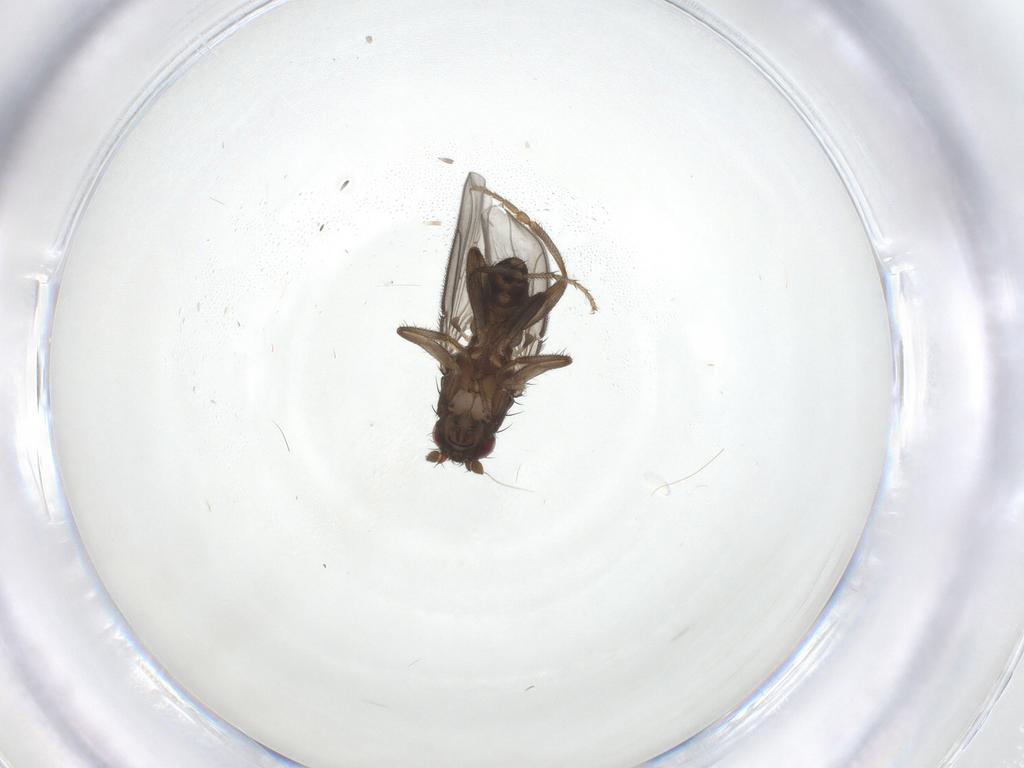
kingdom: Animalia
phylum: Arthropoda
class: Insecta
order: Diptera
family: Sphaeroceridae
